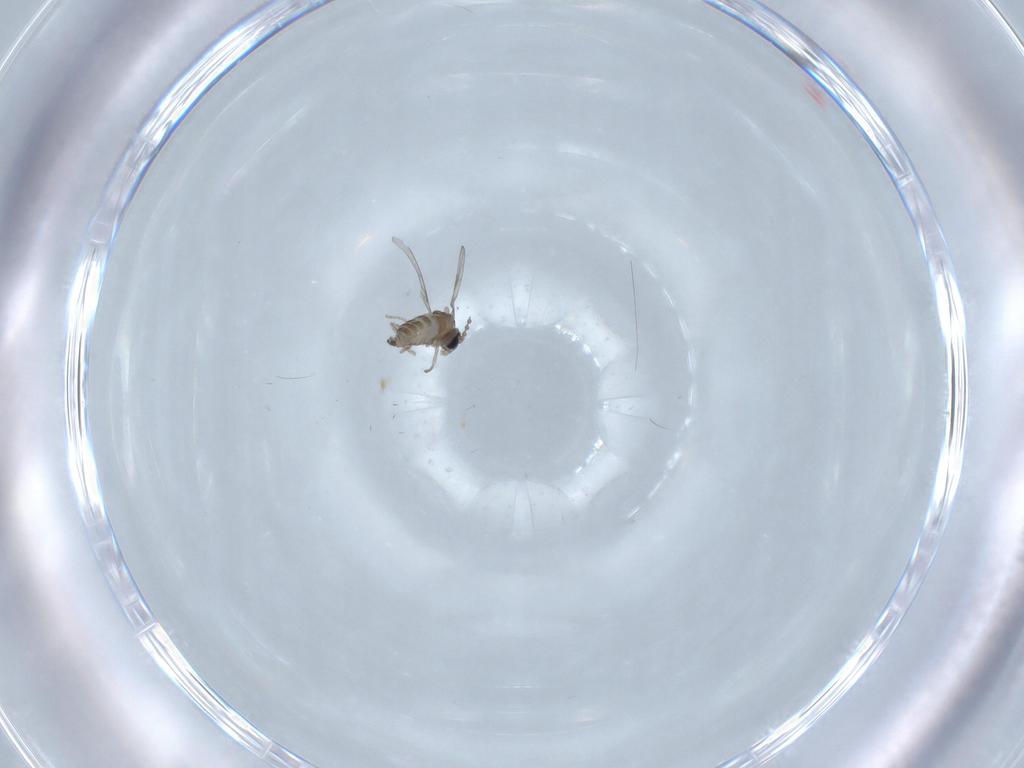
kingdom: Animalia
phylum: Arthropoda
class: Insecta
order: Diptera
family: Cecidomyiidae
